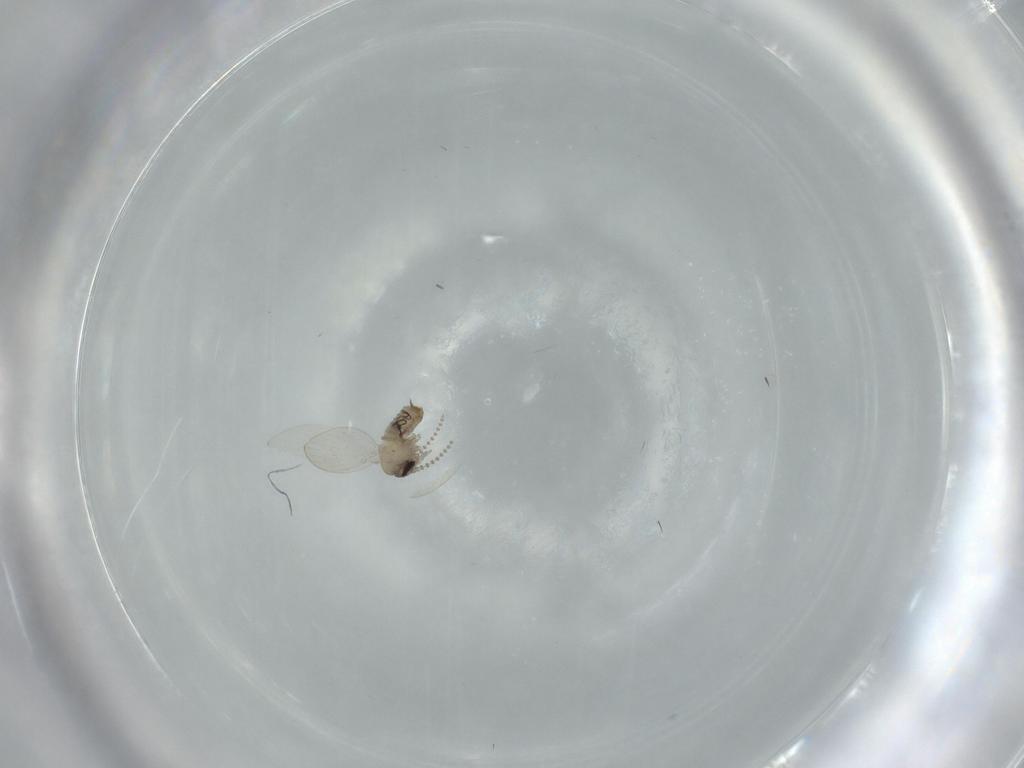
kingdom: Animalia
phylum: Arthropoda
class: Insecta
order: Diptera
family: Psychodidae
